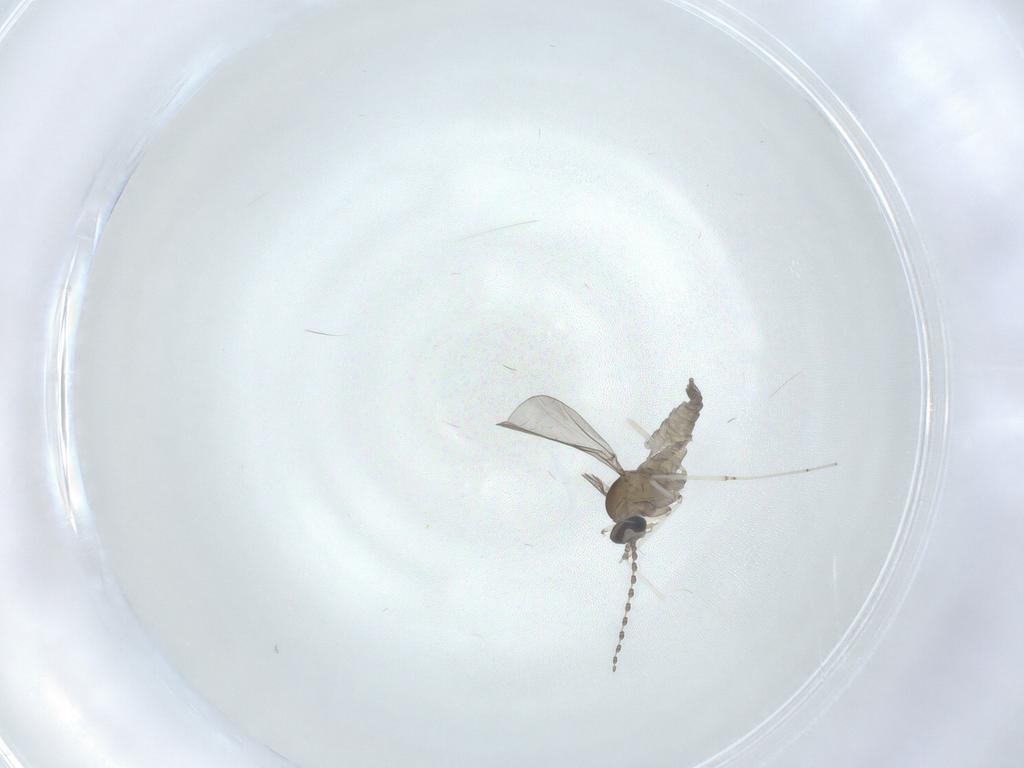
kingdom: Animalia
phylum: Arthropoda
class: Insecta
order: Diptera
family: Cecidomyiidae
